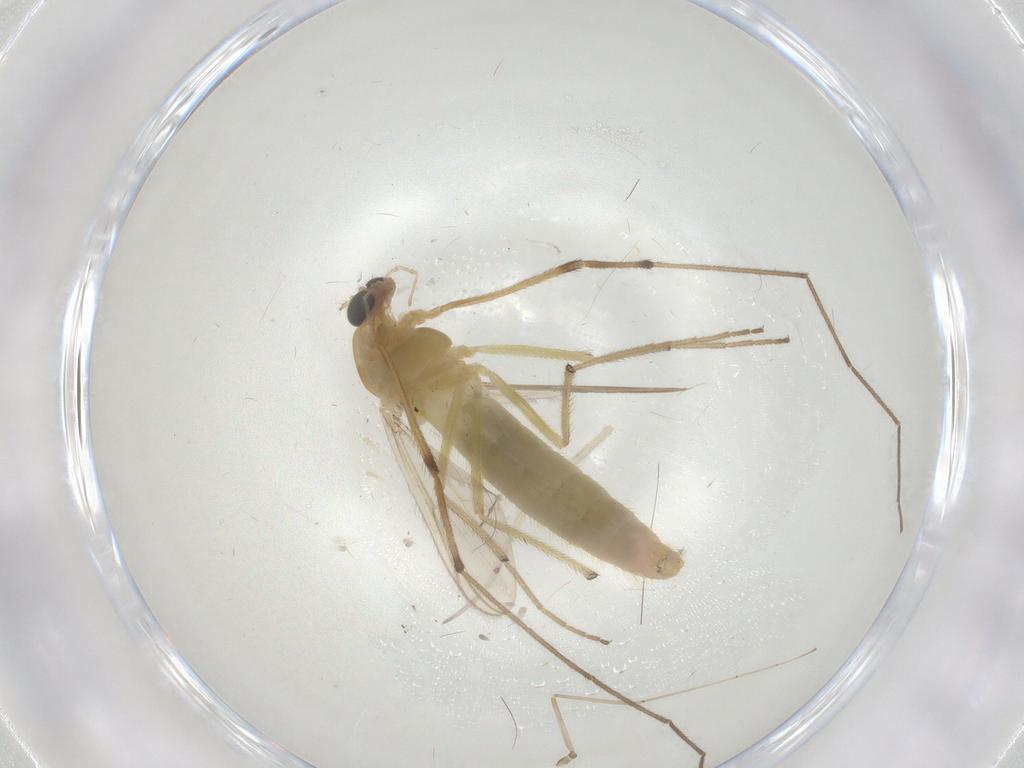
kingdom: Animalia
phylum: Arthropoda
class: Insecta
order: Diptera
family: Chironomidae
